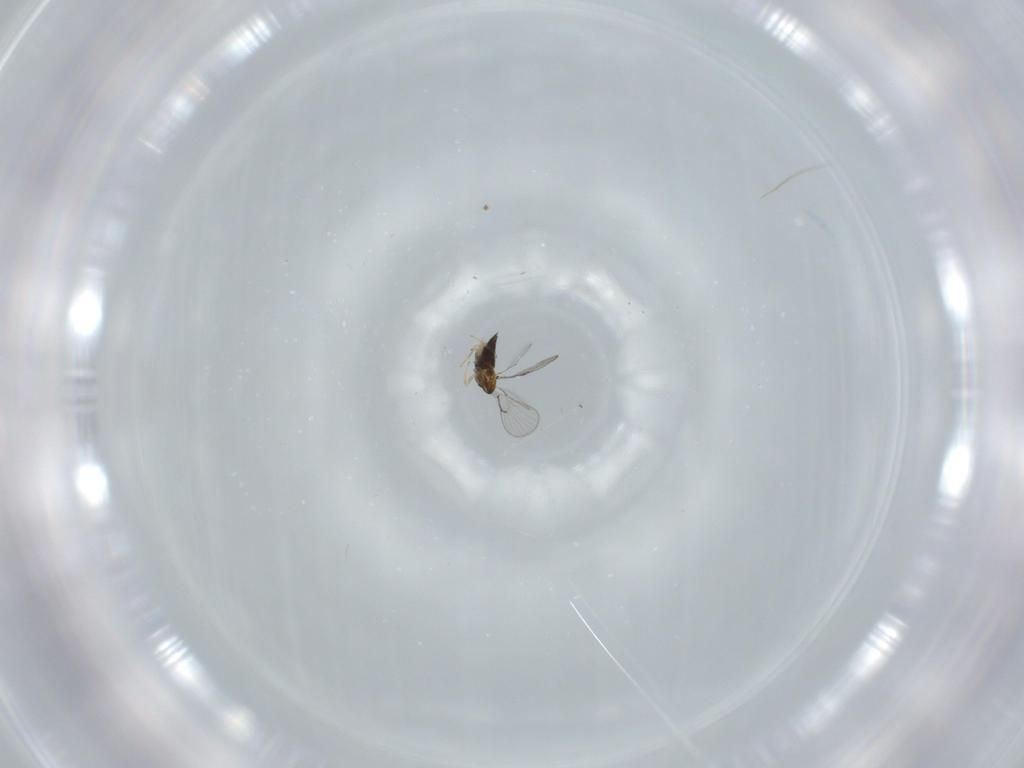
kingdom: Animalia
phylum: Arthropoda
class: Insecta
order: Hymenoptera
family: Trichogrammatidae
